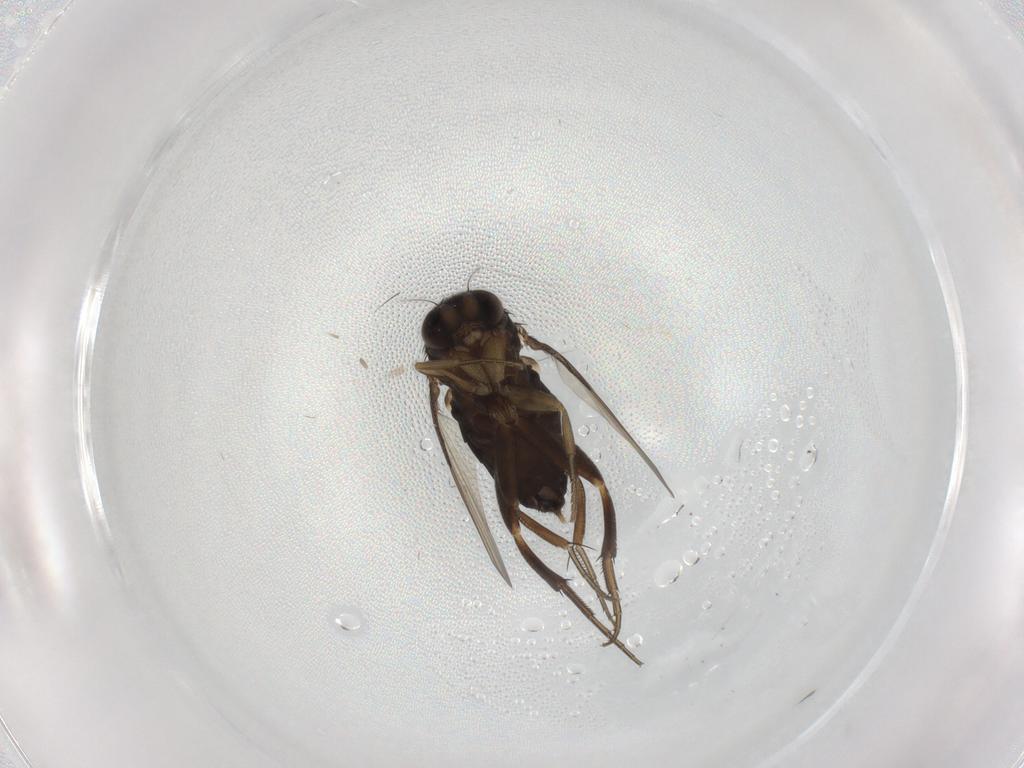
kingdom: Animalia
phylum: Arthropoda
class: Insecta
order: Diptera
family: Phoridae
